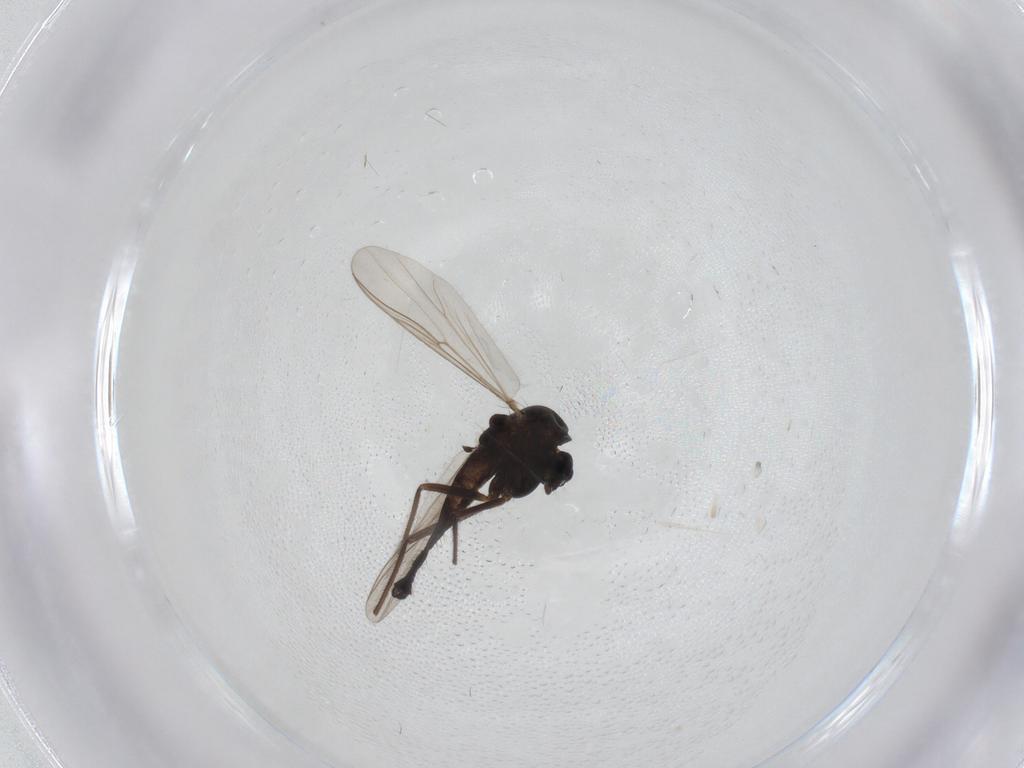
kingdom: Animalia
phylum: Arthropoda
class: Insecta
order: Diptera
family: Chironomidae
